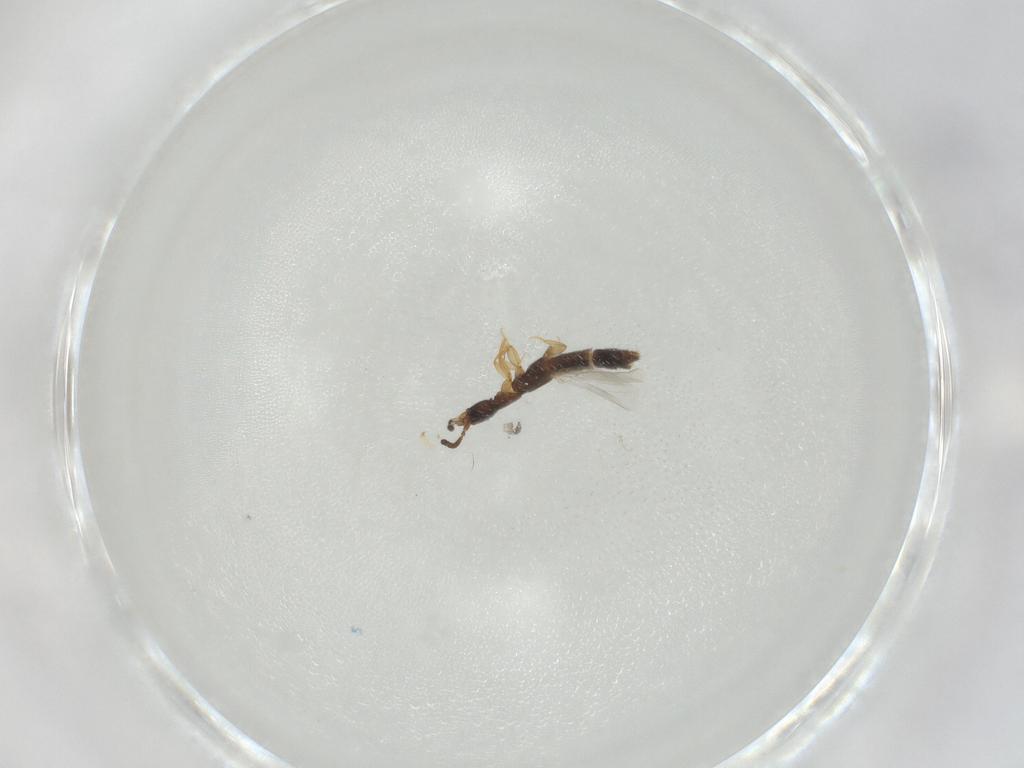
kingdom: Animalia
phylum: Arthropoda
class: Insecta
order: Coleoptera
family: Staphylinidae
